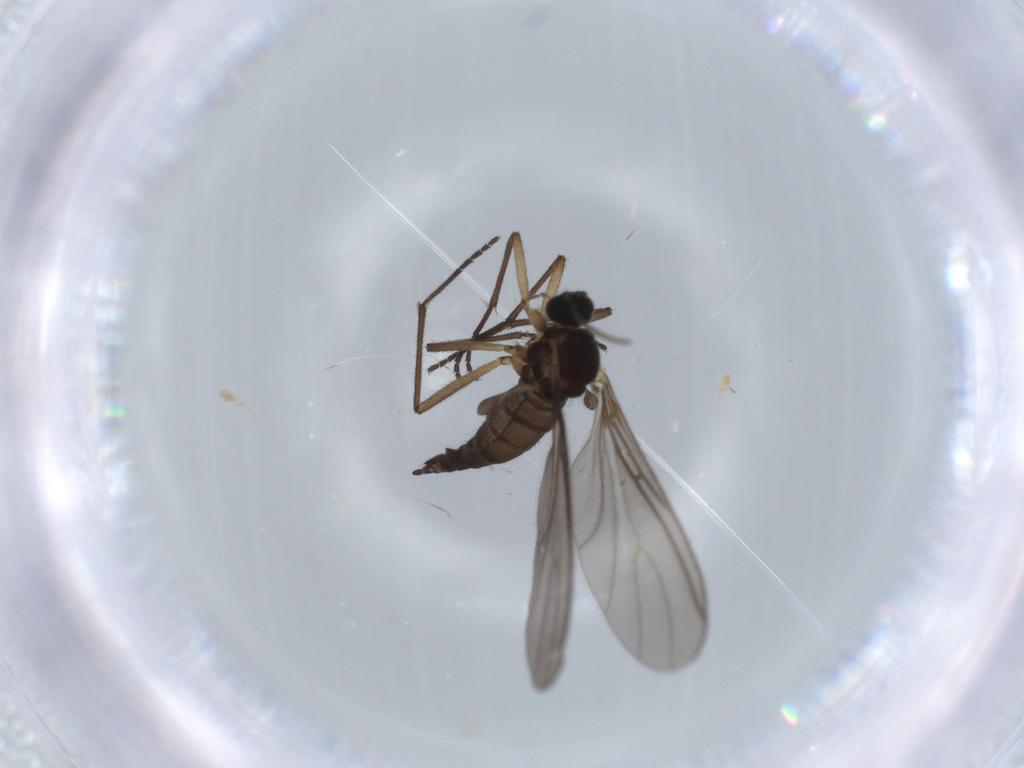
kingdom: Animalia
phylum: Arthropoda
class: Insecta
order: Diptera
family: Sciaridae
